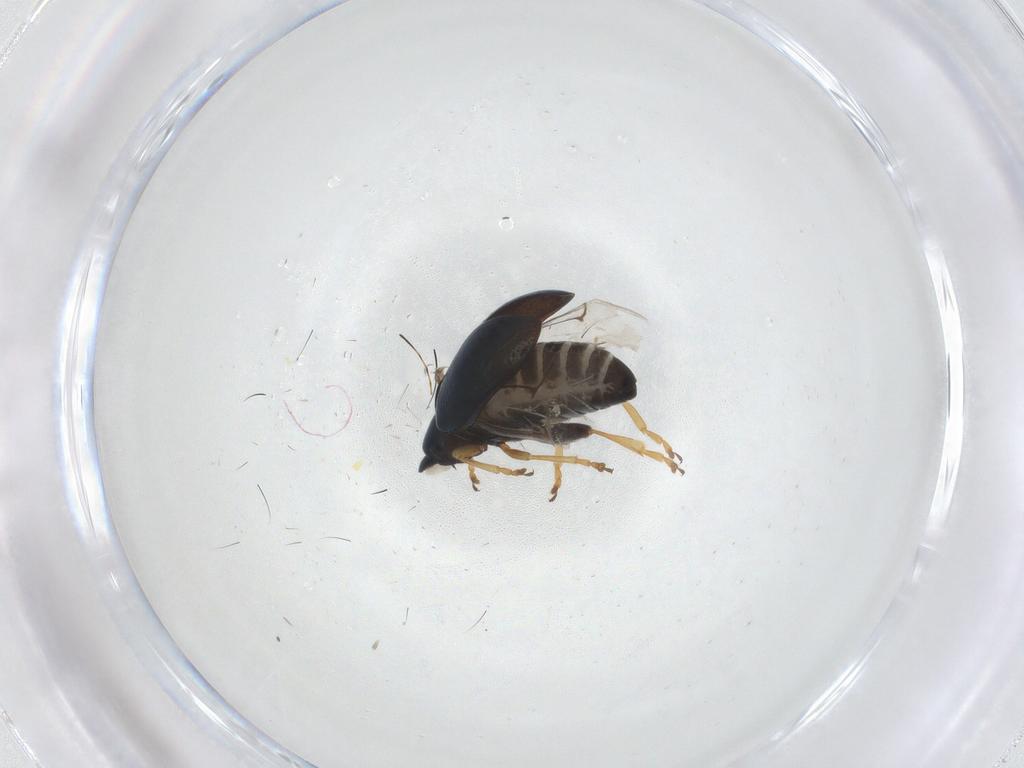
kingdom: Animalia
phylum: Arthropoda
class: Insecta
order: Coleoptera
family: Chrysomelidae
